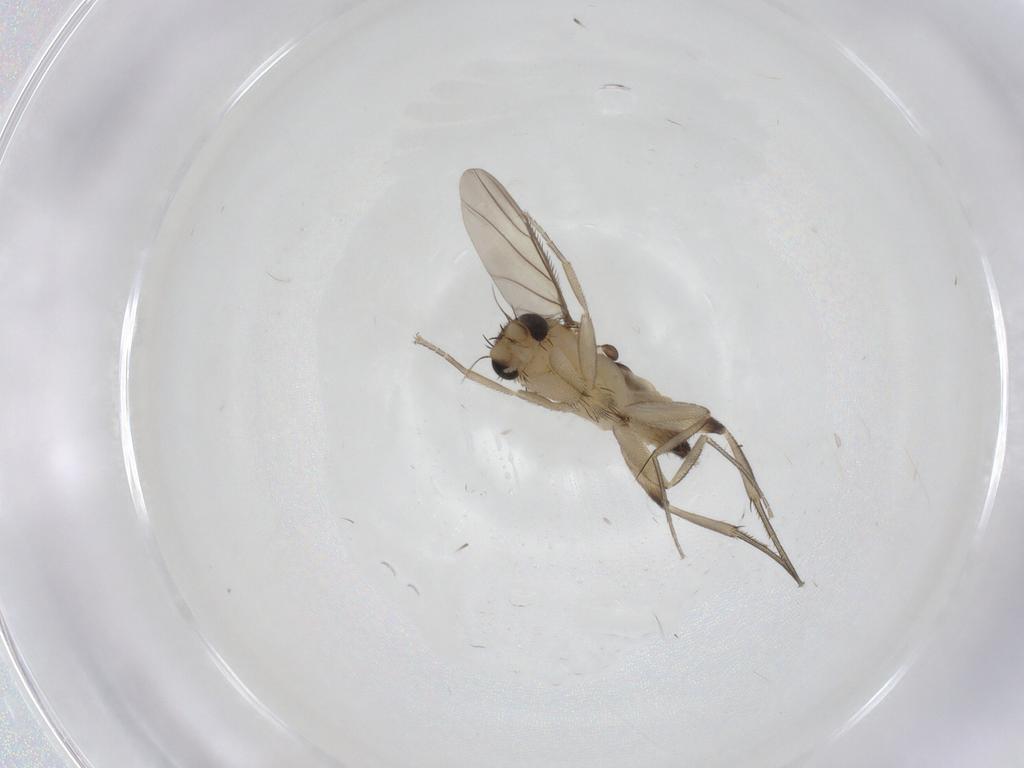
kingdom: Animalia
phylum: Arthropoda
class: Insecta
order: Diptera
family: Phoridae
